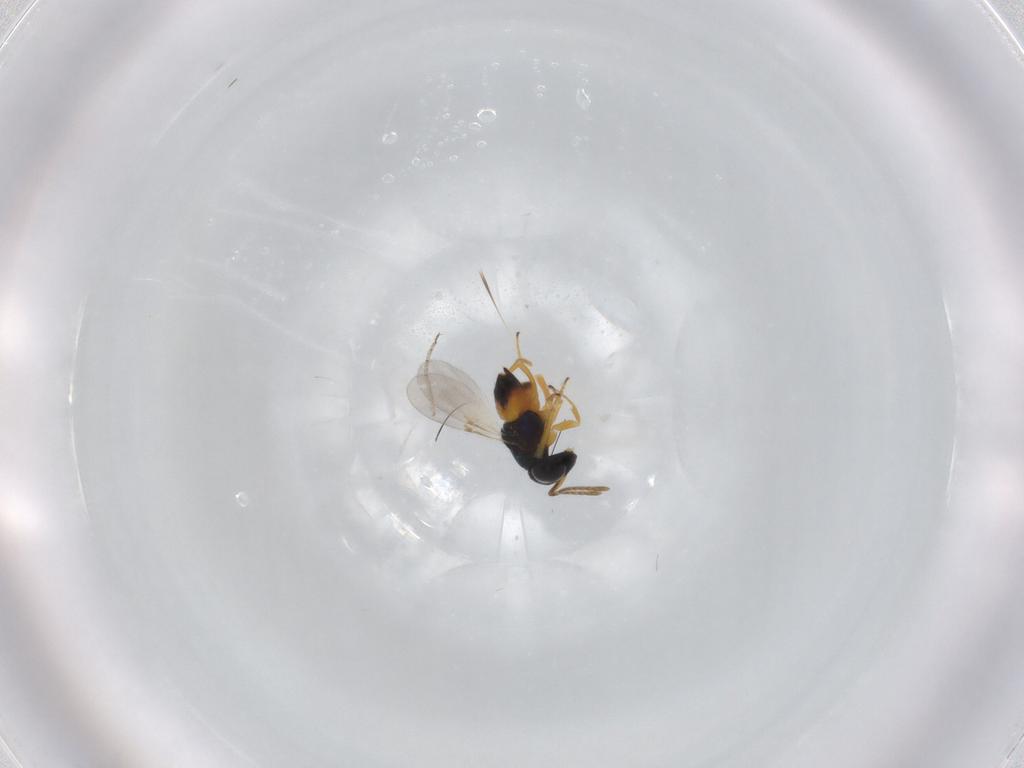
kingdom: Animalia
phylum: Arthropoda
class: Insecta
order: Hymenoptera
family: Encyrtidae
